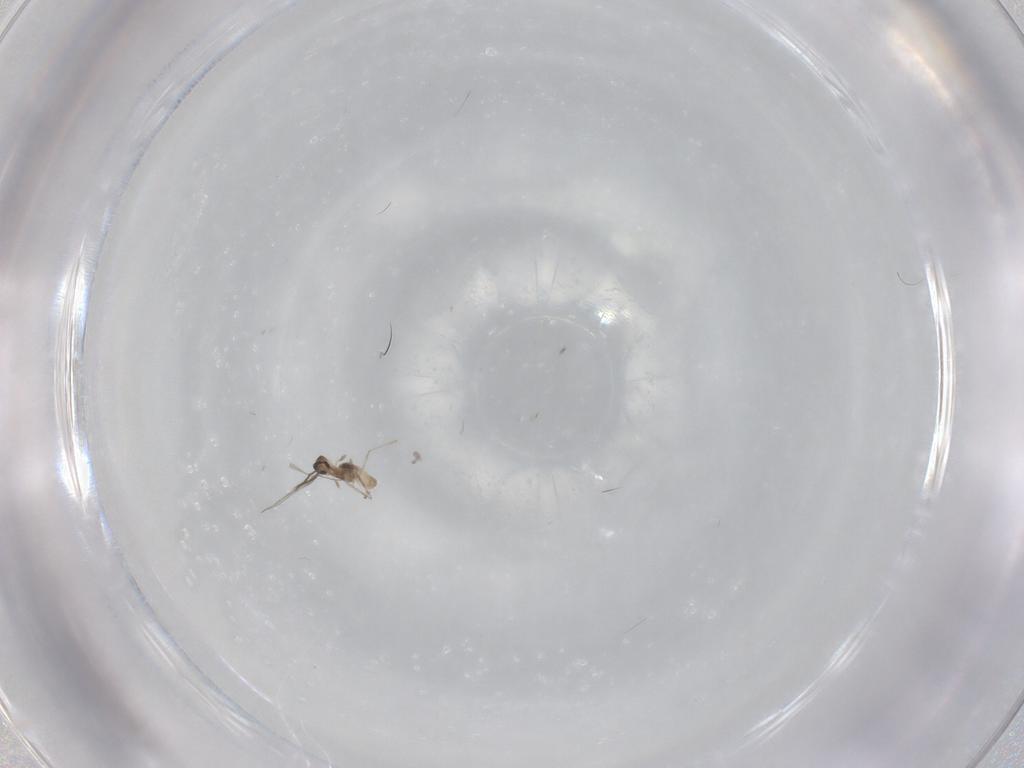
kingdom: Animalia
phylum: Arthropoda
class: Insecta
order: Diptera
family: Cecidomyiidae
